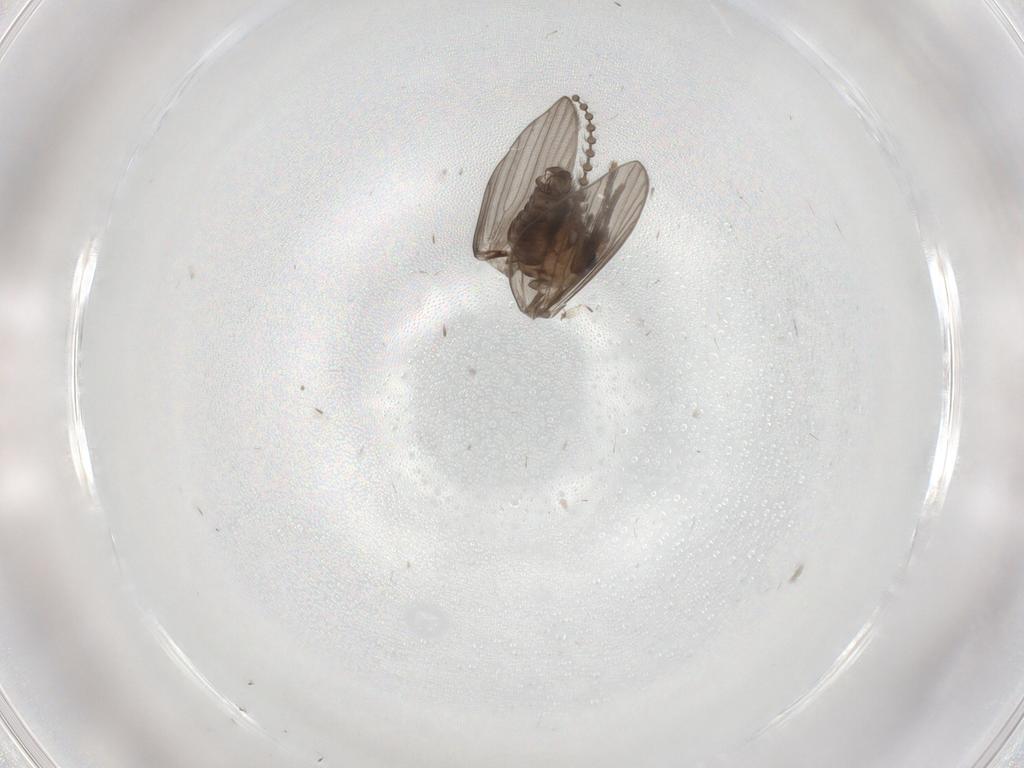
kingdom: Animalia
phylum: Arthropoda
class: Insecta
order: Diptera
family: Psychodidae
